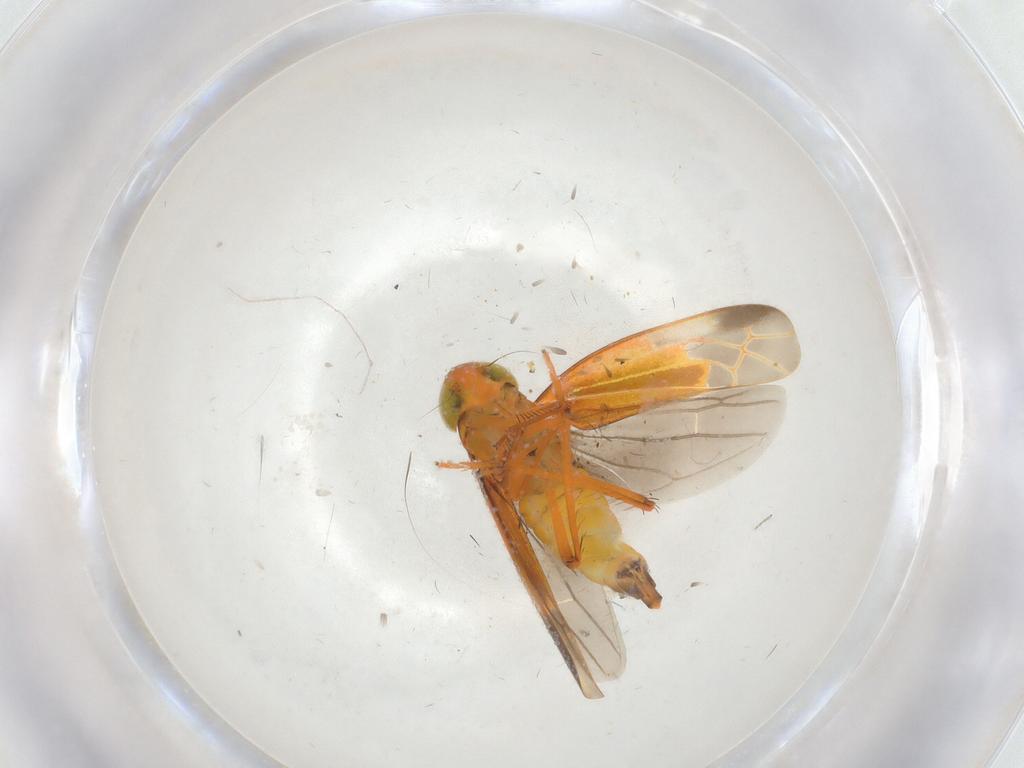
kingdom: Animalia
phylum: Arthropoda
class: Insecta
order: Hemiptera
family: Cicadellidae
